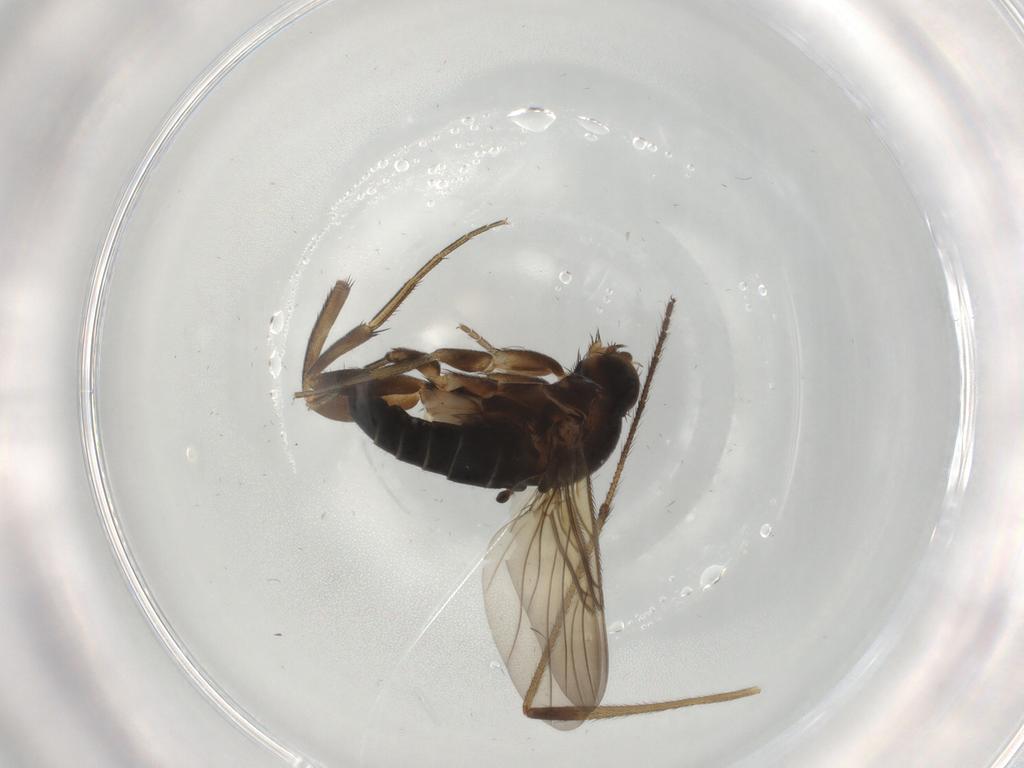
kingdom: Animalia
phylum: Arthropoda
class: Insecta
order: Diptera
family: Phoridae
